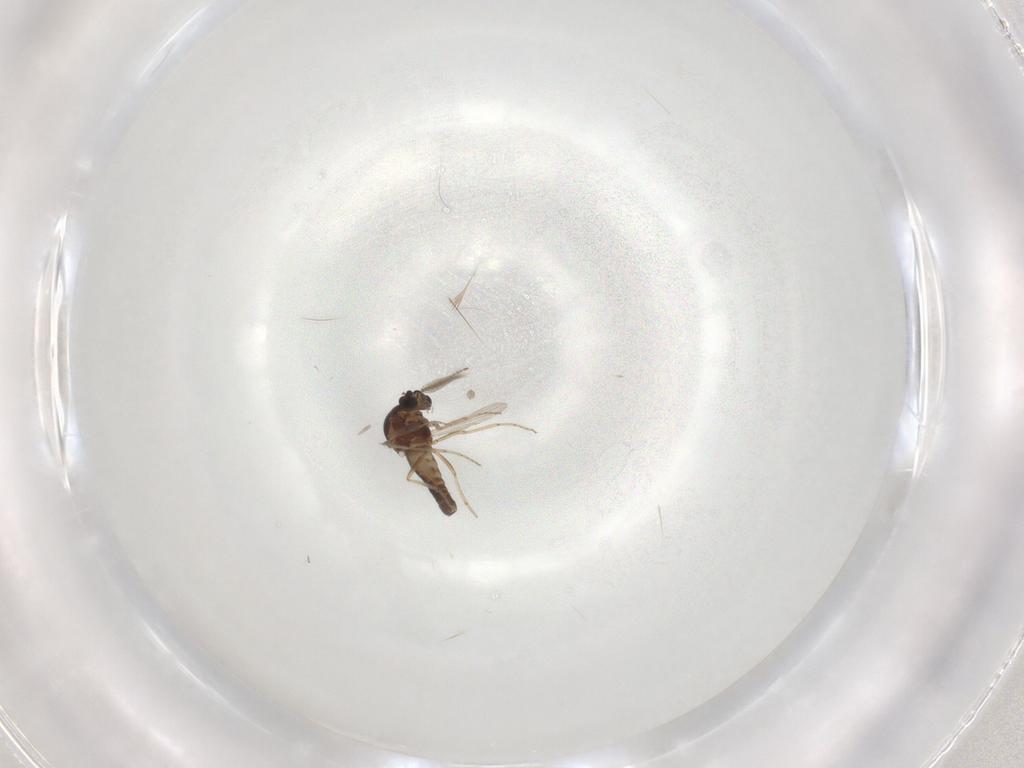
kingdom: Animalia
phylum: Arthropoda
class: Insecta
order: Diptera
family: Ceratopogonidae
